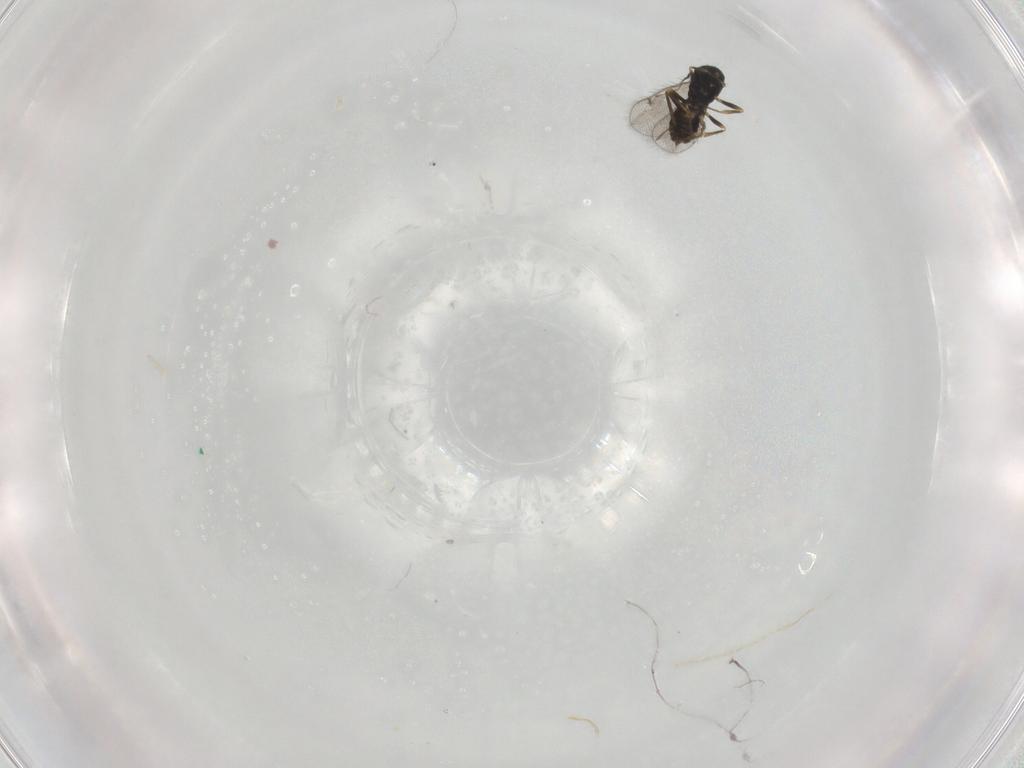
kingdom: Animalia
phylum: Arthropoda
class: Insecta
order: Hymenoptera
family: Eulophidae
